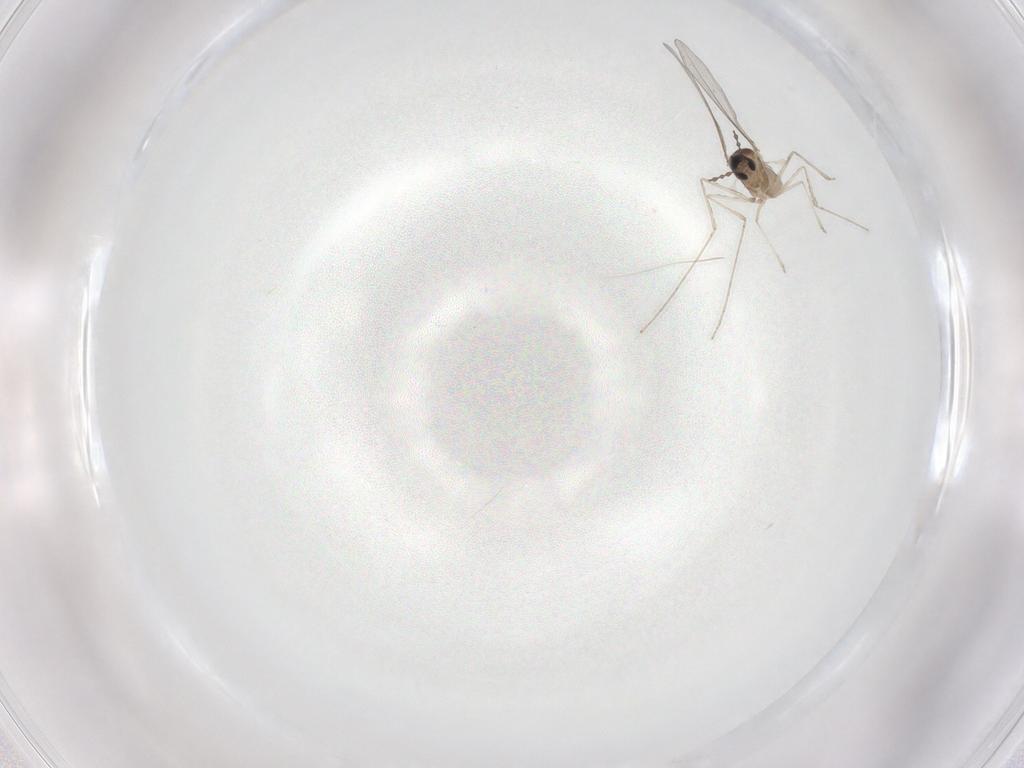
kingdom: Animalia
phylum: Arthropoda
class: Insecta
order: Diptera
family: Cecidomyiidae
